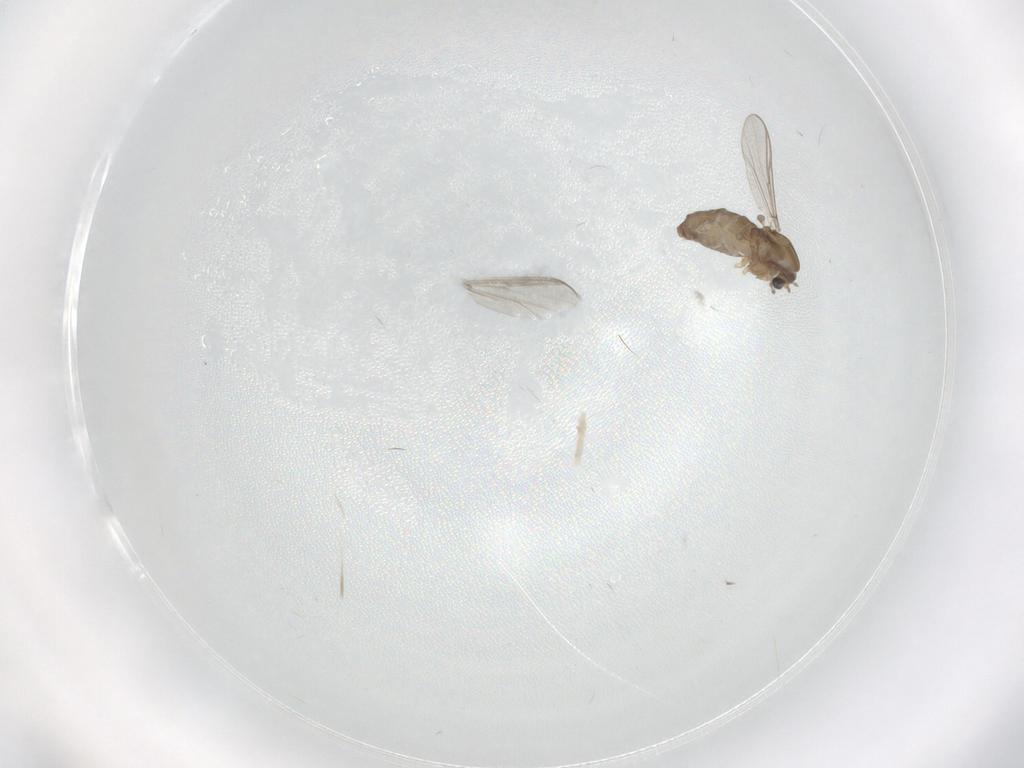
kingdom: Animalia
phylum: Arthropoda
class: Insecta
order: Diptera
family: Chironomidae
